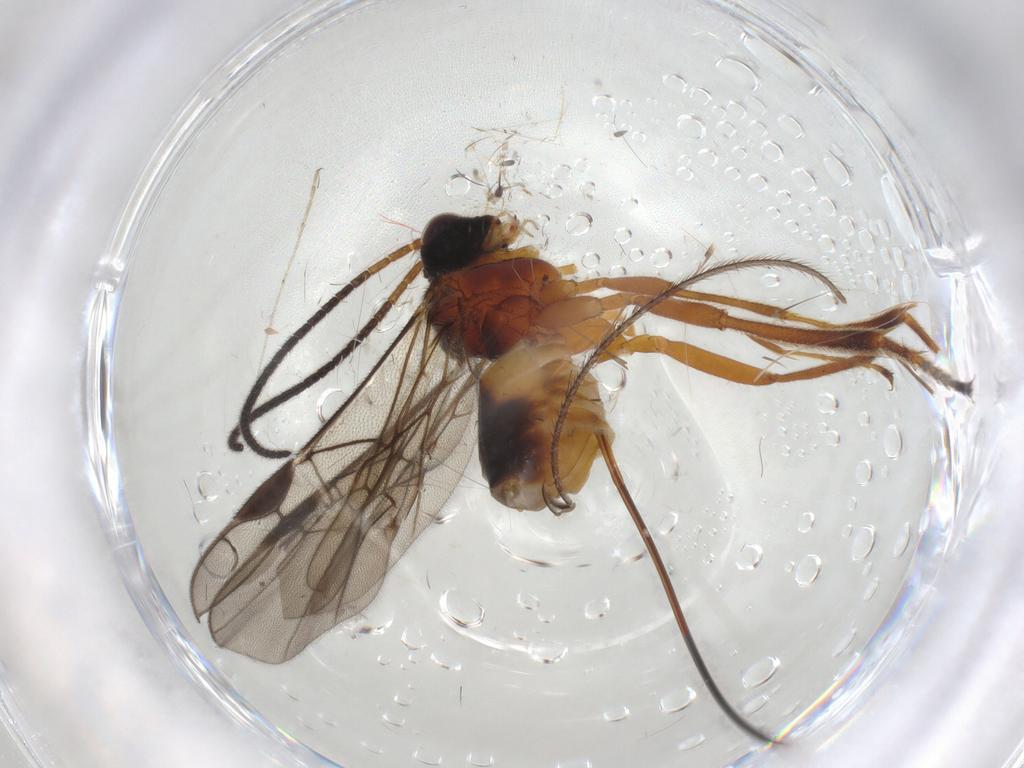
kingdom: Animalia
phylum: Arthropoda
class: Insecta
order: Hymenoptera
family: Braconidae
